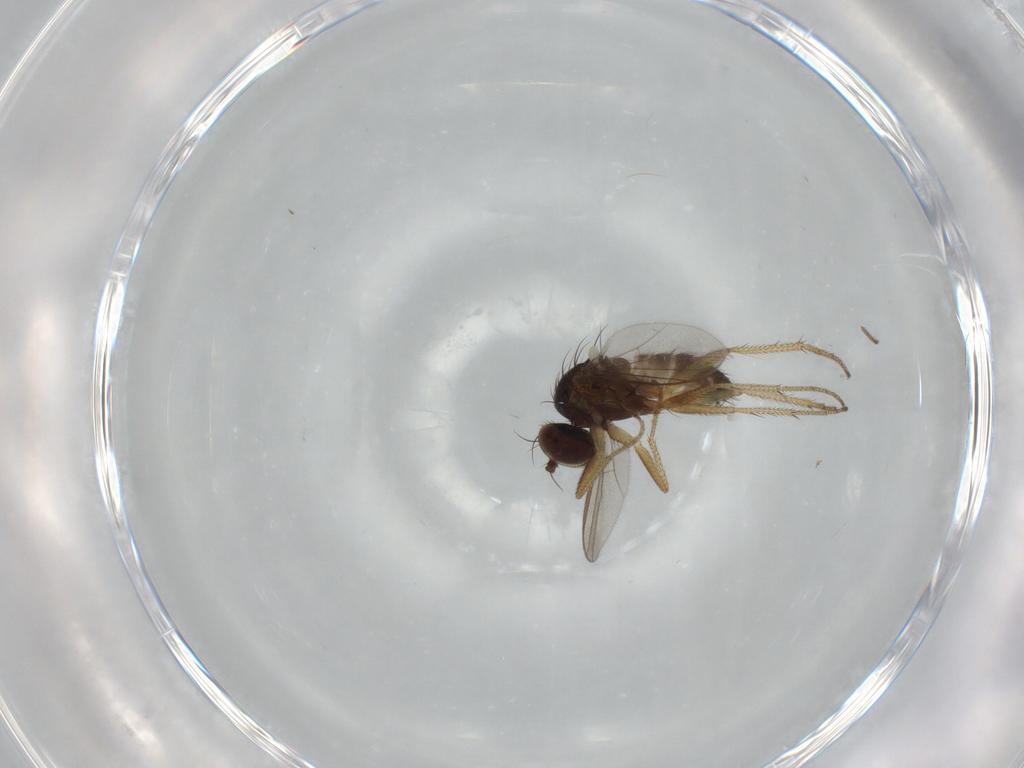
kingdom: Animalia
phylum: Arthropoda
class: Insecta
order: Diptera
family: Dolichopodidae
